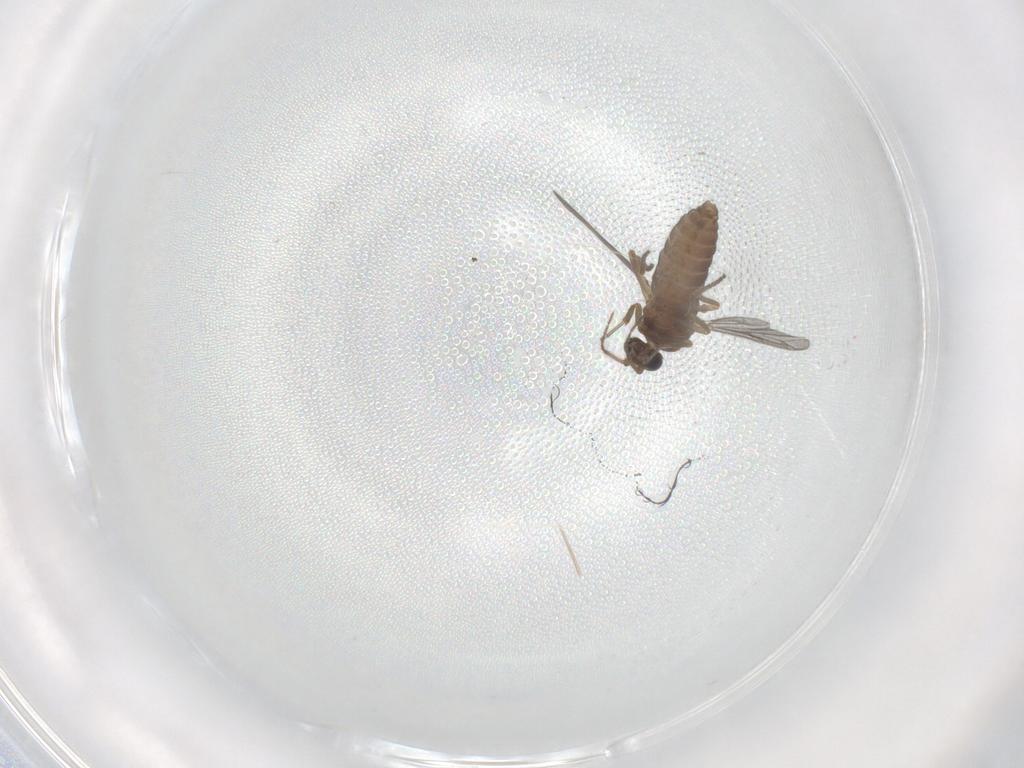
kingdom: Animalia
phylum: Arthropoda
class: Insecta
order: Diptera
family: Ceratopogonidae
